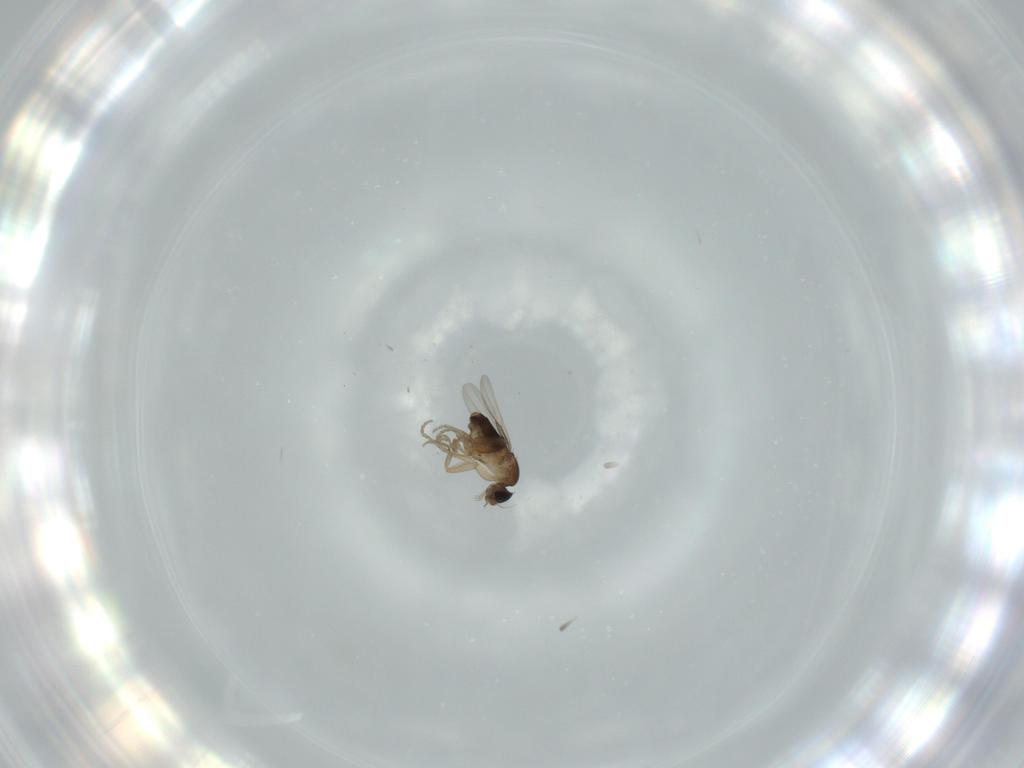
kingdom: Animalia
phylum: Arthropoda
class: Insecta
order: Diptera
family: Phoridae
